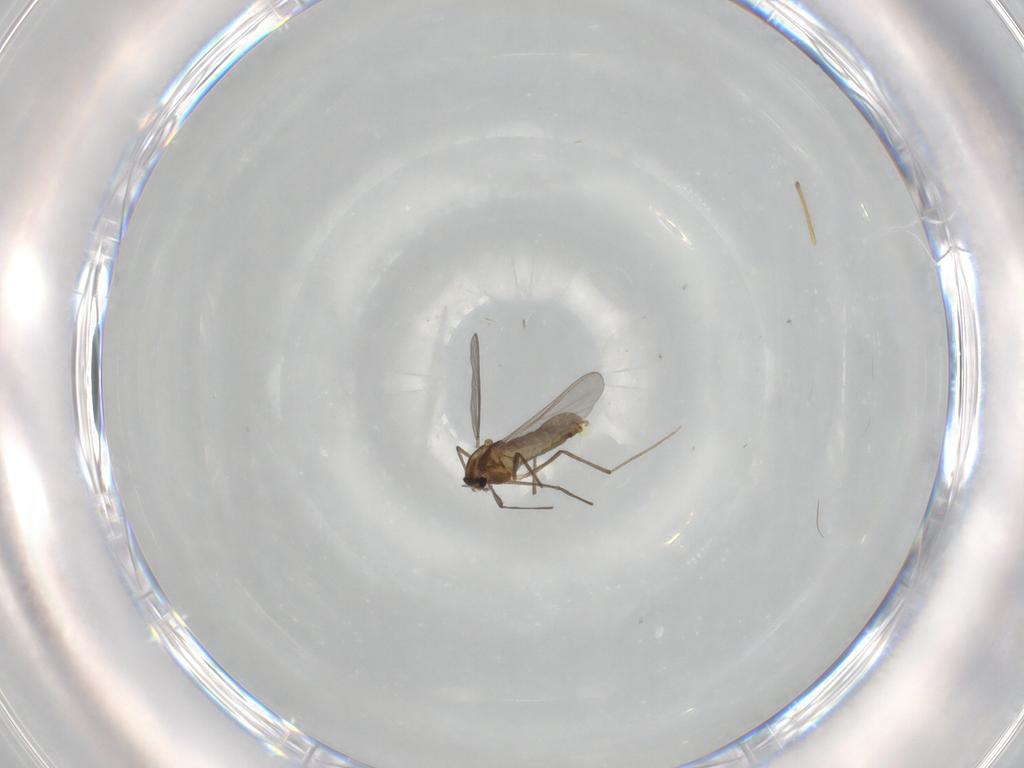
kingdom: Animalia
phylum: Arthropoda
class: Insecta
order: Diptera
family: Chironomidae
